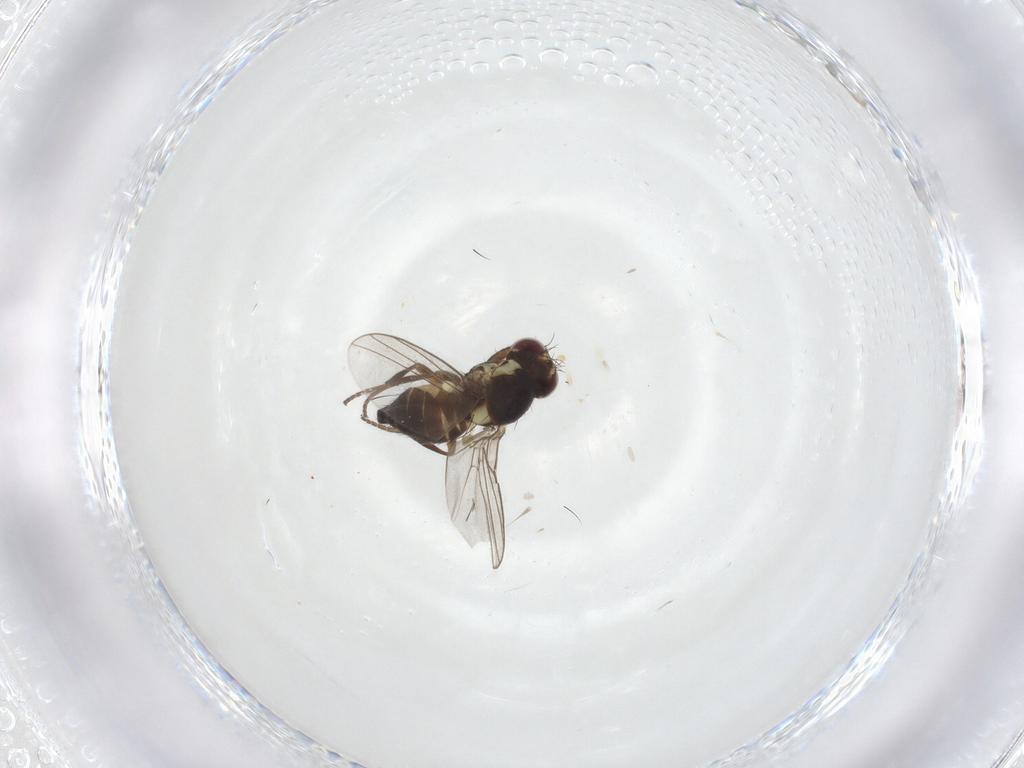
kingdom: Animalia
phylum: Arthropoda
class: Insecta
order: Diptera
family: Agromyzidae
